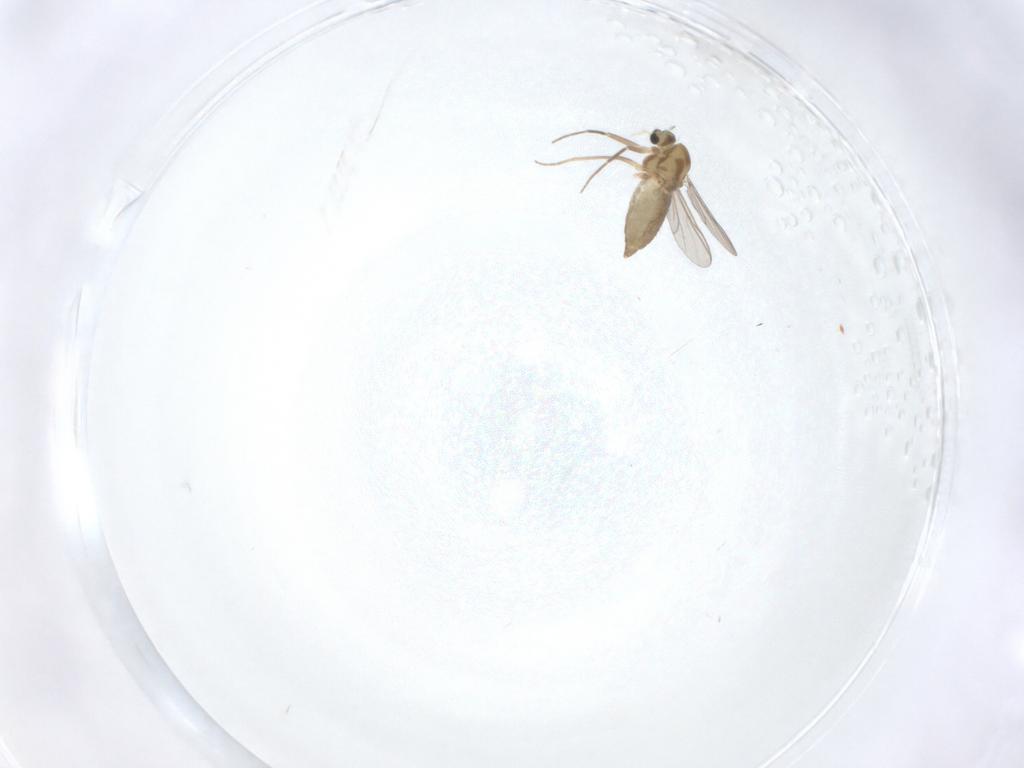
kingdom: Animalia
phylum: Arthropoda
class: Insecta
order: Diptera
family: Chironomidae
